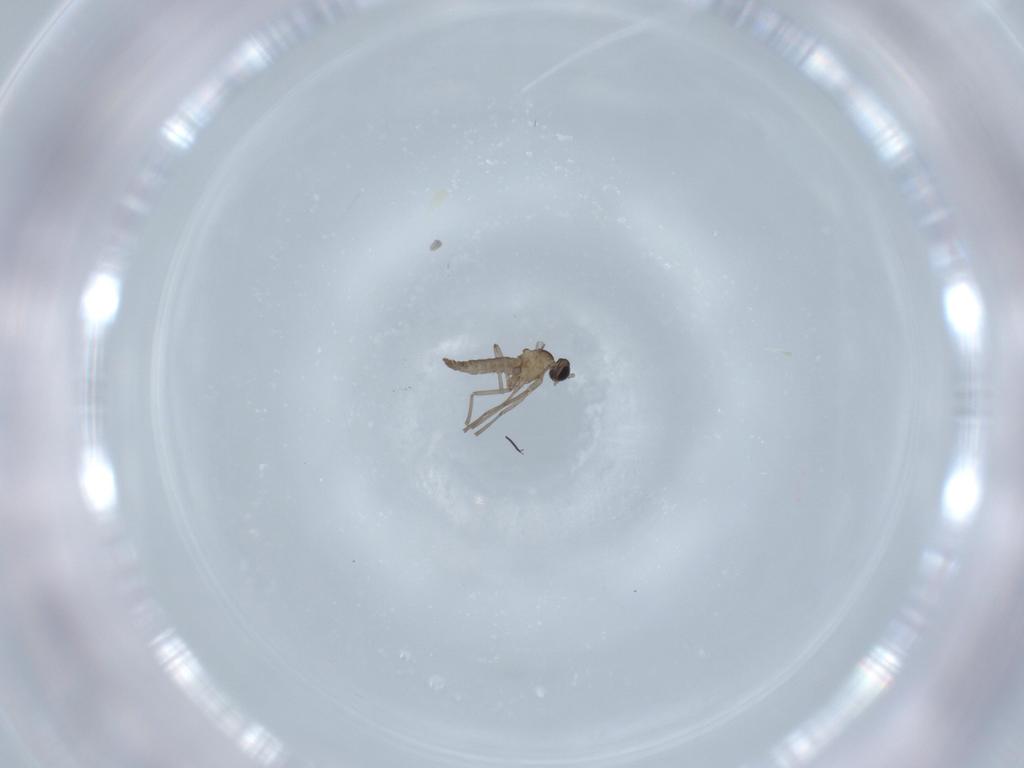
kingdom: Animalia
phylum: Arthropoda
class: Insecta
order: Diptera
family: Cecidomyiidae
